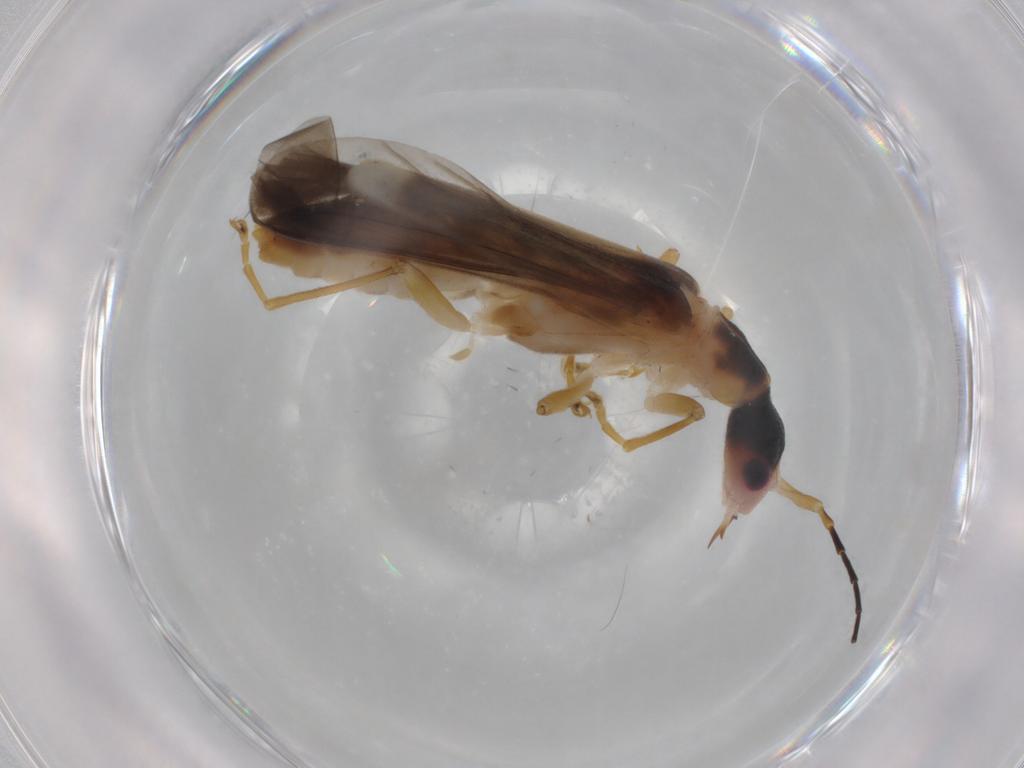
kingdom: Animalia
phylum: Arthropoda
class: Insecta
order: Coleoptera
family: Cantharidae
